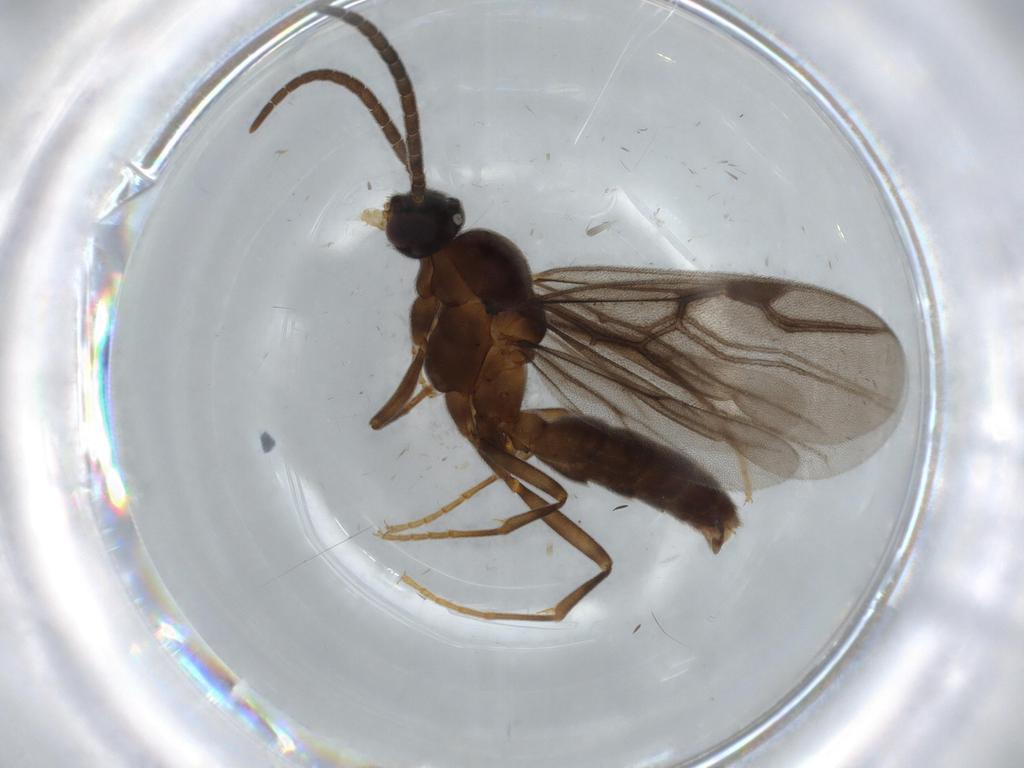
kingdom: Animalia
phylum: Arthropoda
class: Insecta
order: Hymenoptera
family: Formicidae
